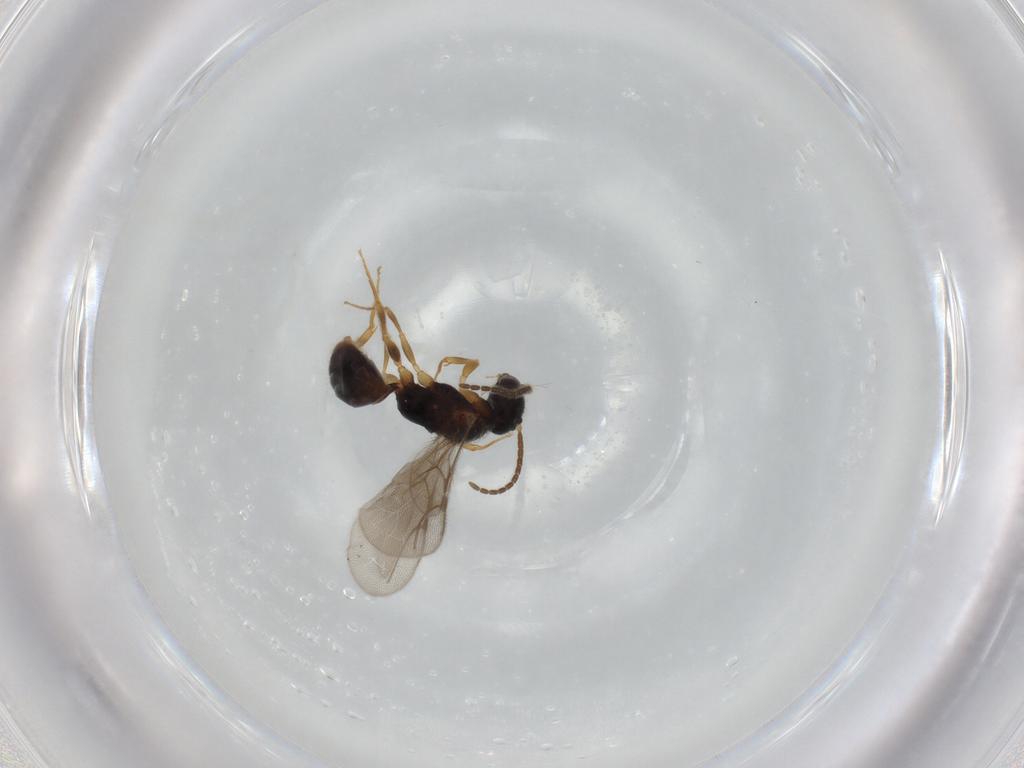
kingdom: Animalia
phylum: Arthropoda
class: Insecta
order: Hymenoptera
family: Bethylidae
